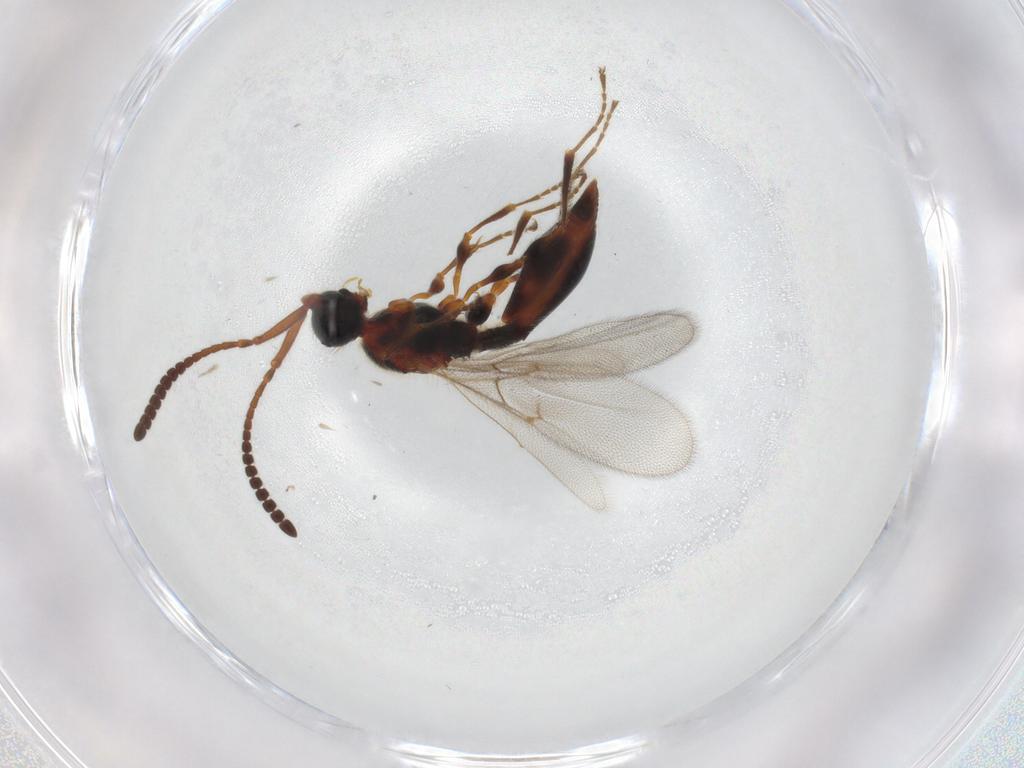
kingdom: Animalia
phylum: Arthropoda
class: Insecta
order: Hymenoptera
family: Diapriidae
